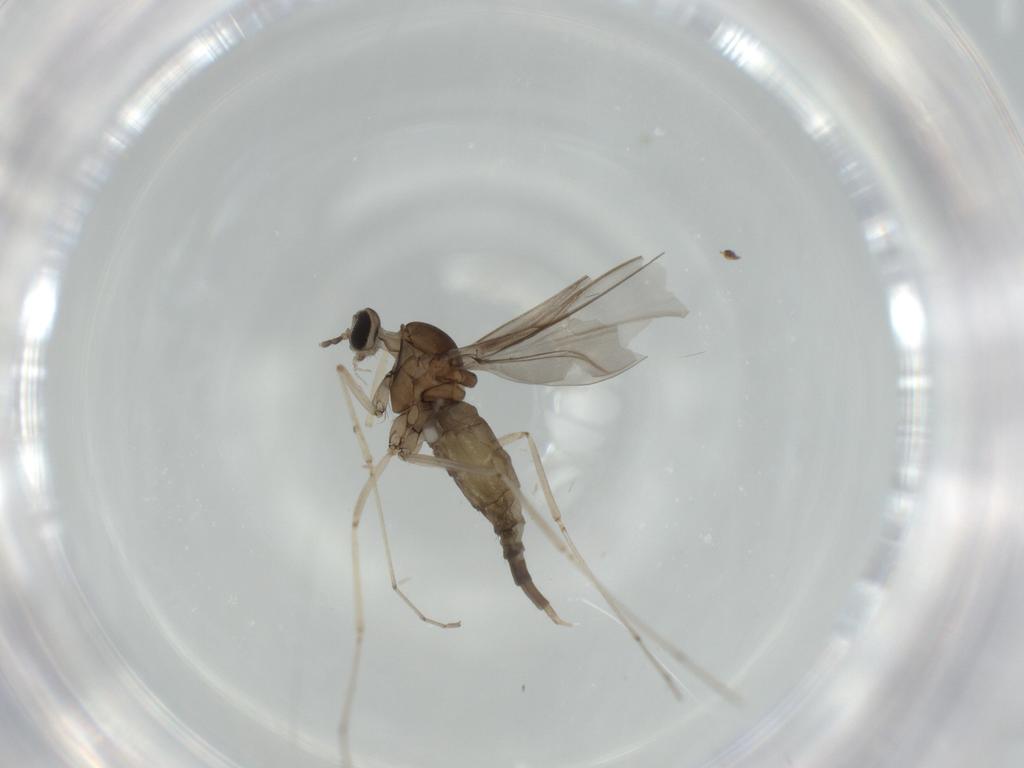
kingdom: Animalia
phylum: Arthropoda
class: Insecta
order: Diptera
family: Cecidomyiidae
